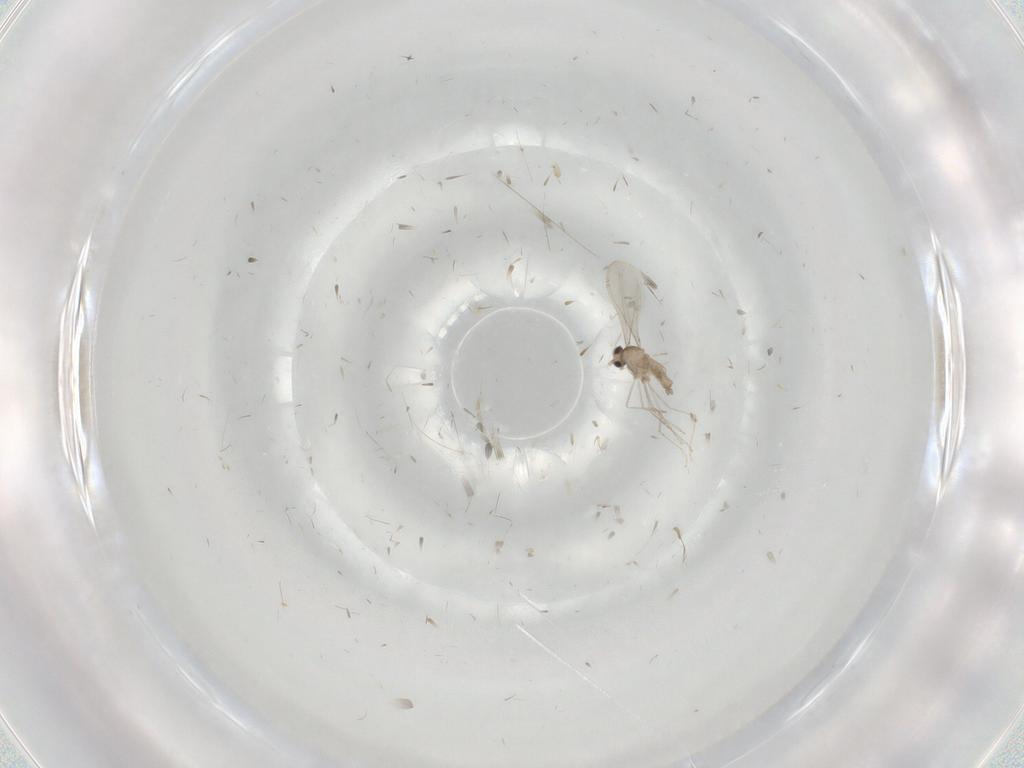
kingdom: Animalia
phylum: Arthropoda
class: Insecta
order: Diptera
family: Cecidomyiidae
